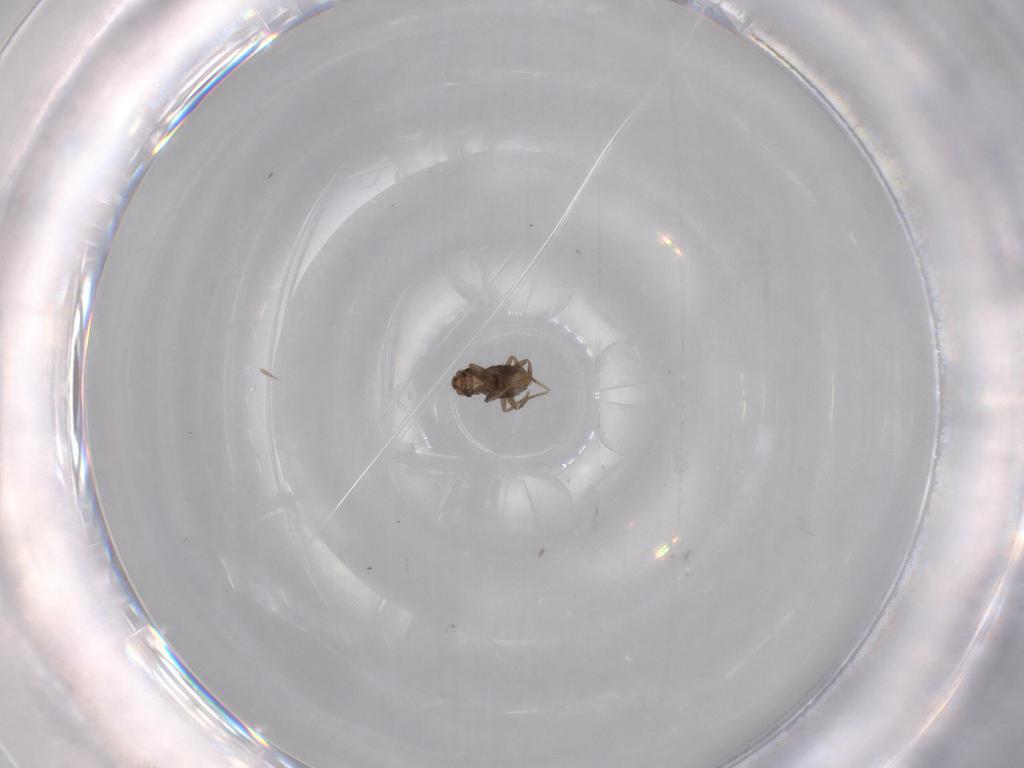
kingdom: Animalia
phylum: Arthropoda
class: Insecta
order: Diptera
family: Phoridae
